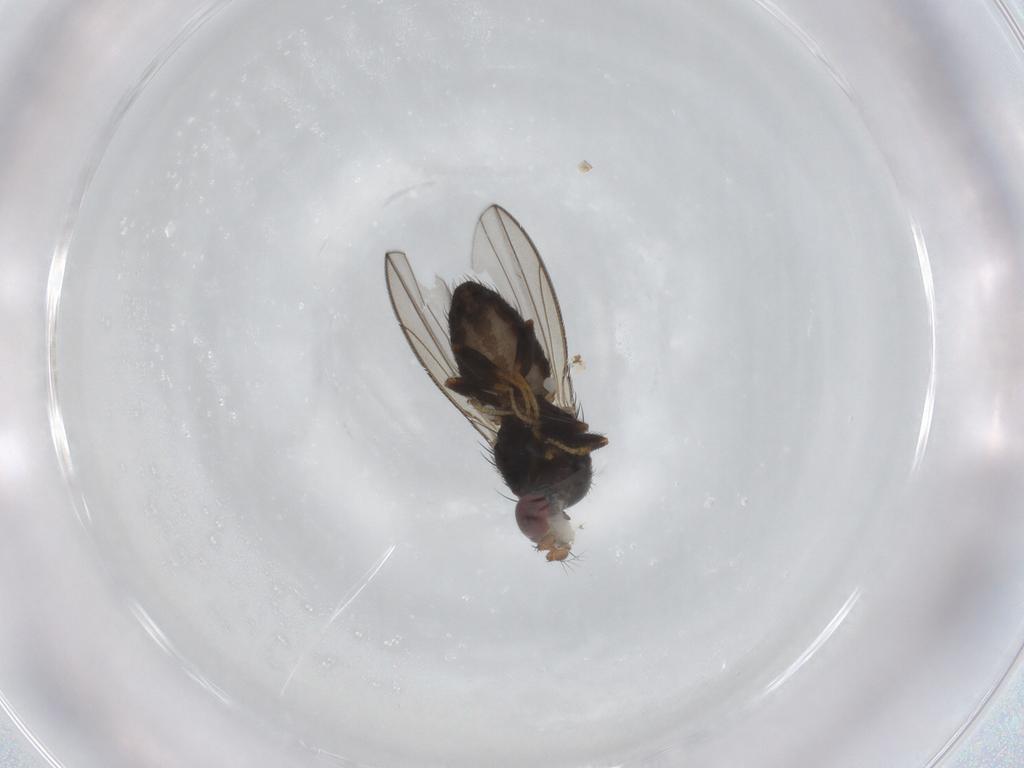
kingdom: Animalia
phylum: Arthropoda
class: Insecta
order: Diptera
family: Ephydridae
